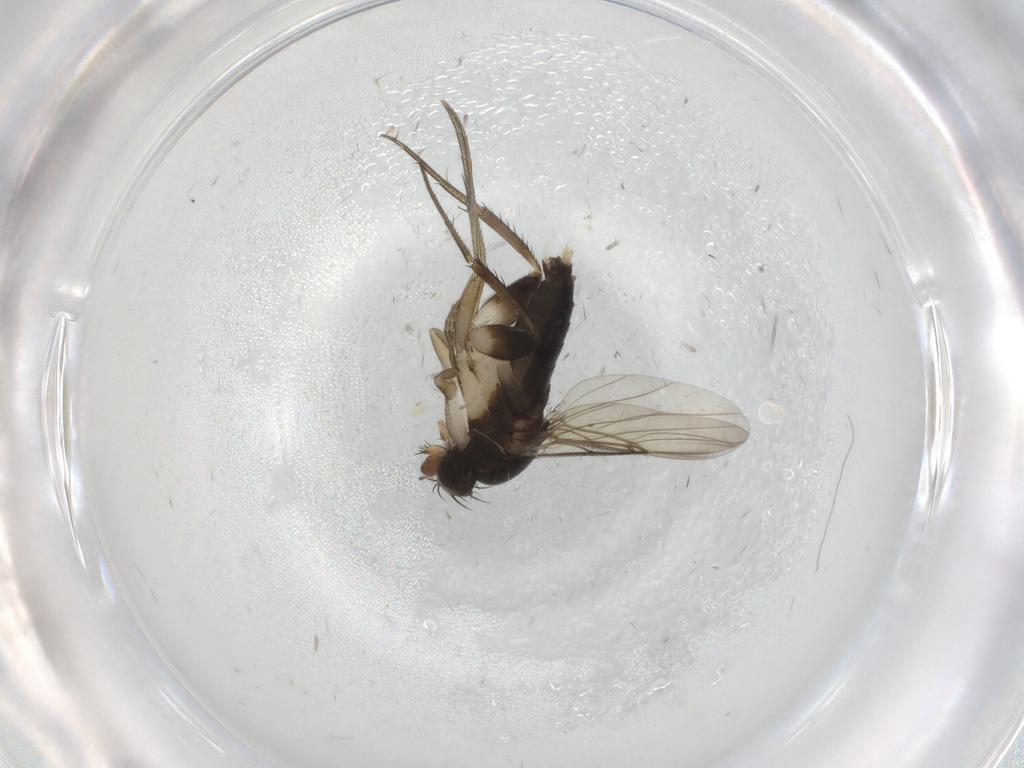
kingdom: Animalia
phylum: Arthropoda
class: Insecta
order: Diptera
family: Phoridae
